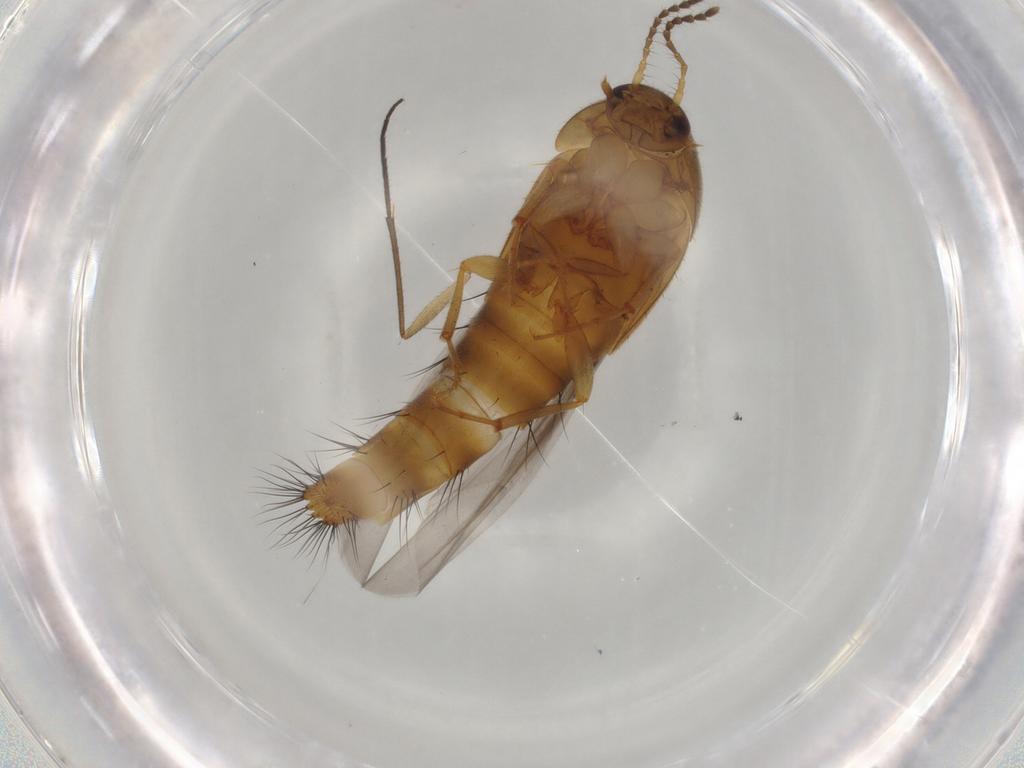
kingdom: Animalia
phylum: Arthropoda
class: Insecta
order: Coleoptera
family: Staphylinidae
